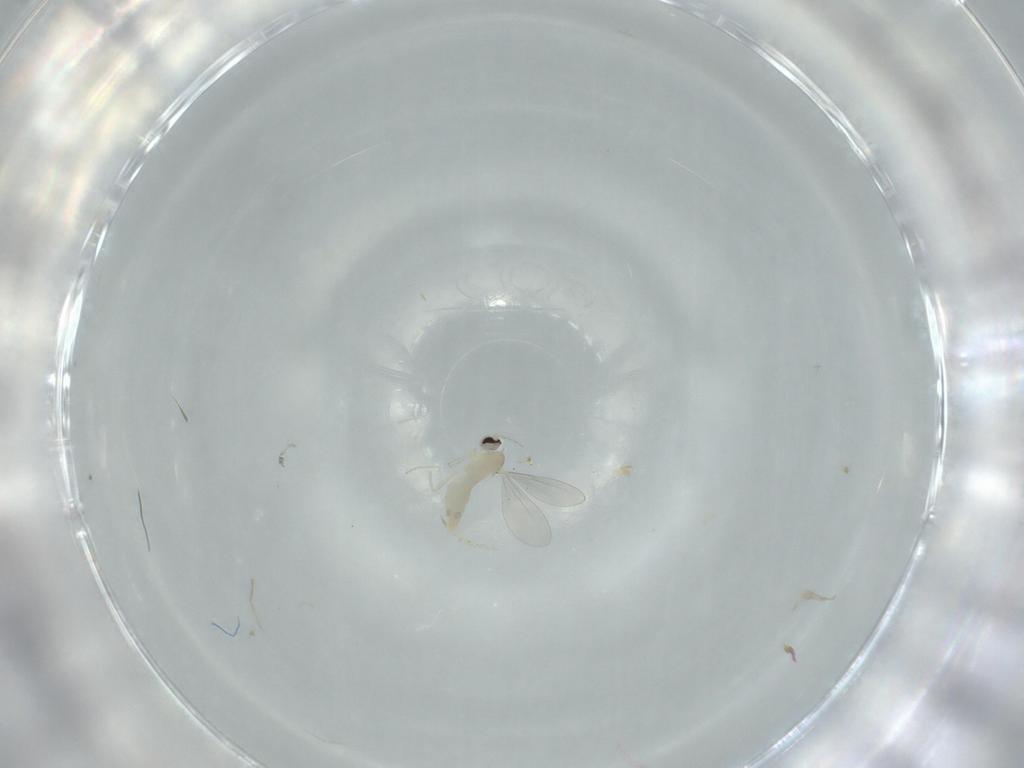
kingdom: Animalia
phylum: Arthropoda
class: Insecta
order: Diptera
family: Cecidomyiidae
